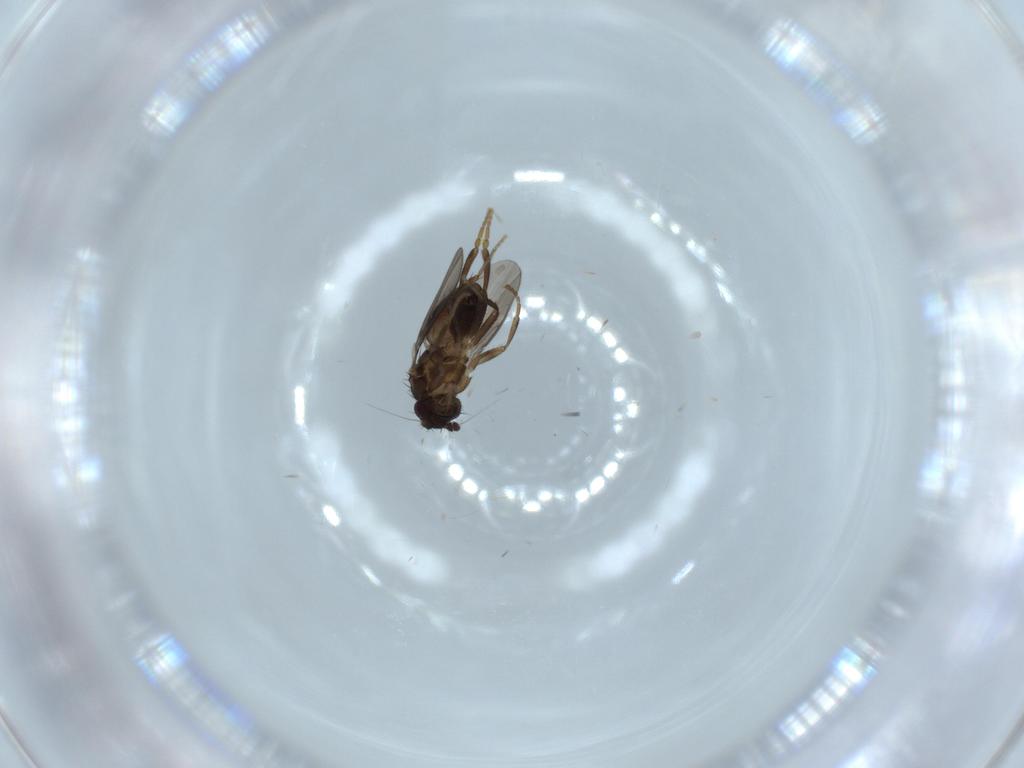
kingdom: Animalia
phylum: Arthropoda
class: Insecta
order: Diptera
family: Sphaeroceridae
